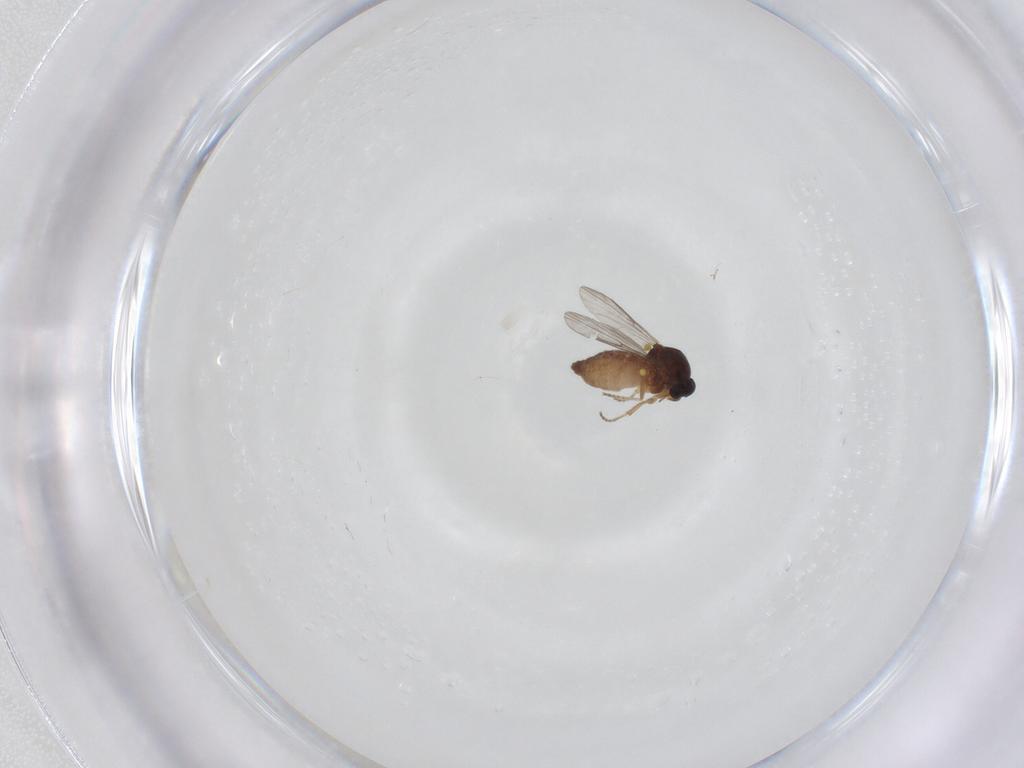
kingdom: Animalia
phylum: Arthropoda
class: Insecta
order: Diptera
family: Ceratopogonidae
